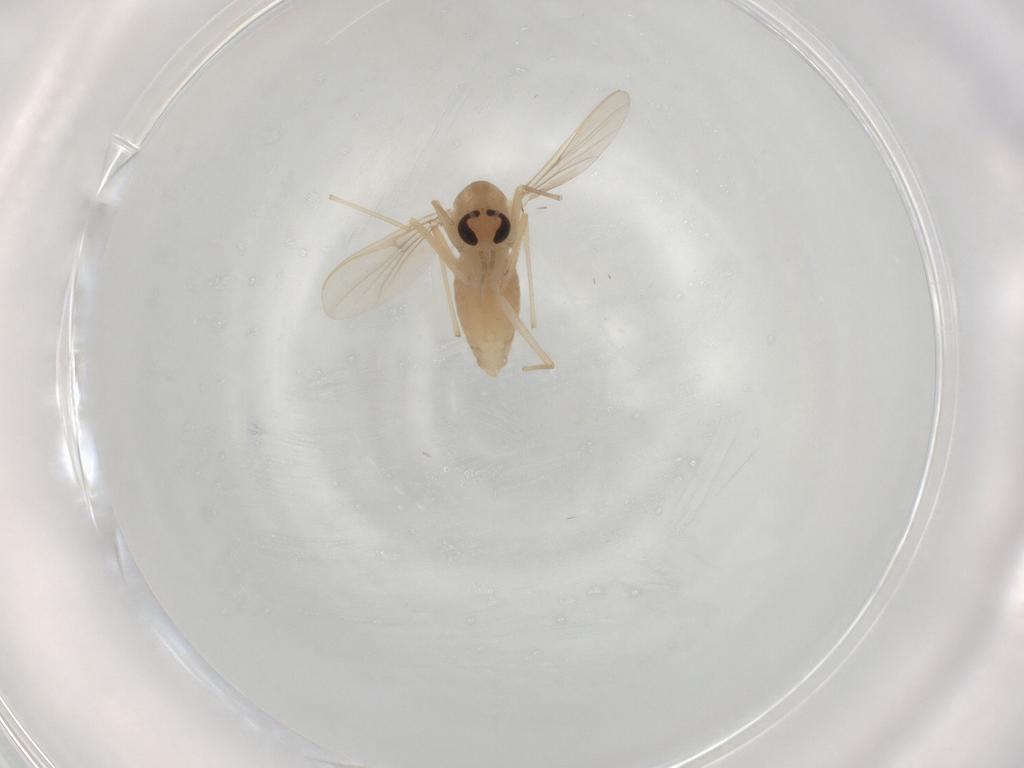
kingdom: Animalia
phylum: Arthropoda
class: Insecta
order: Diptera
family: Chironomidae
